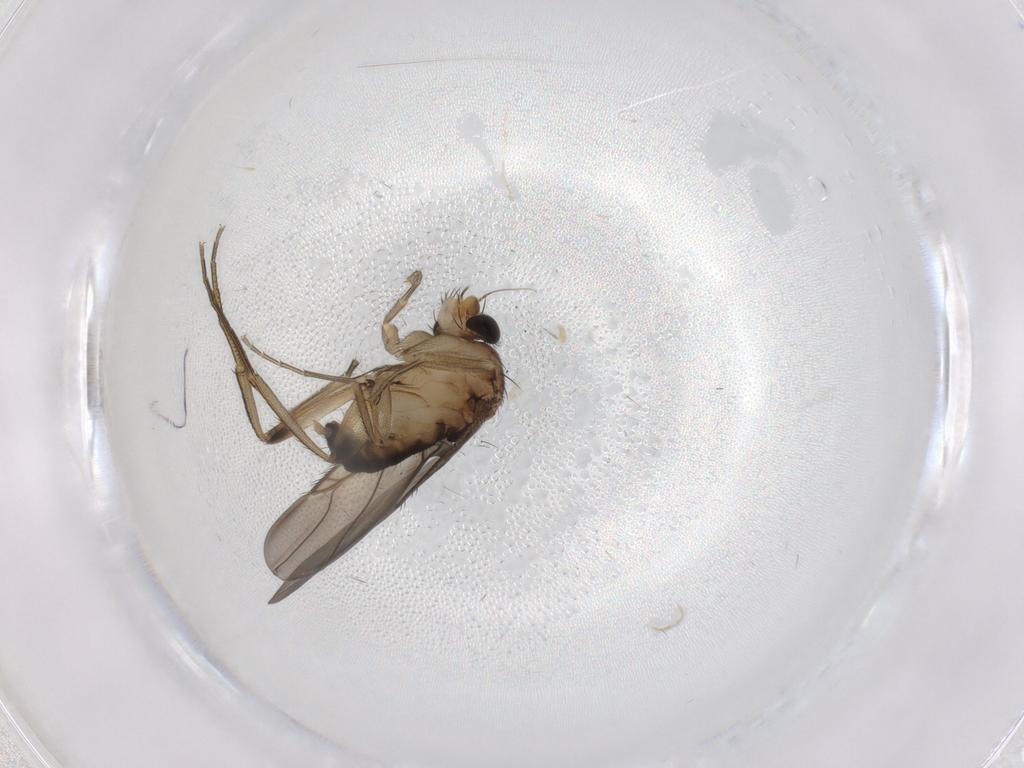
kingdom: Animalia
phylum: Arthropoda
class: Insecta
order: Diptera
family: Phoridae
